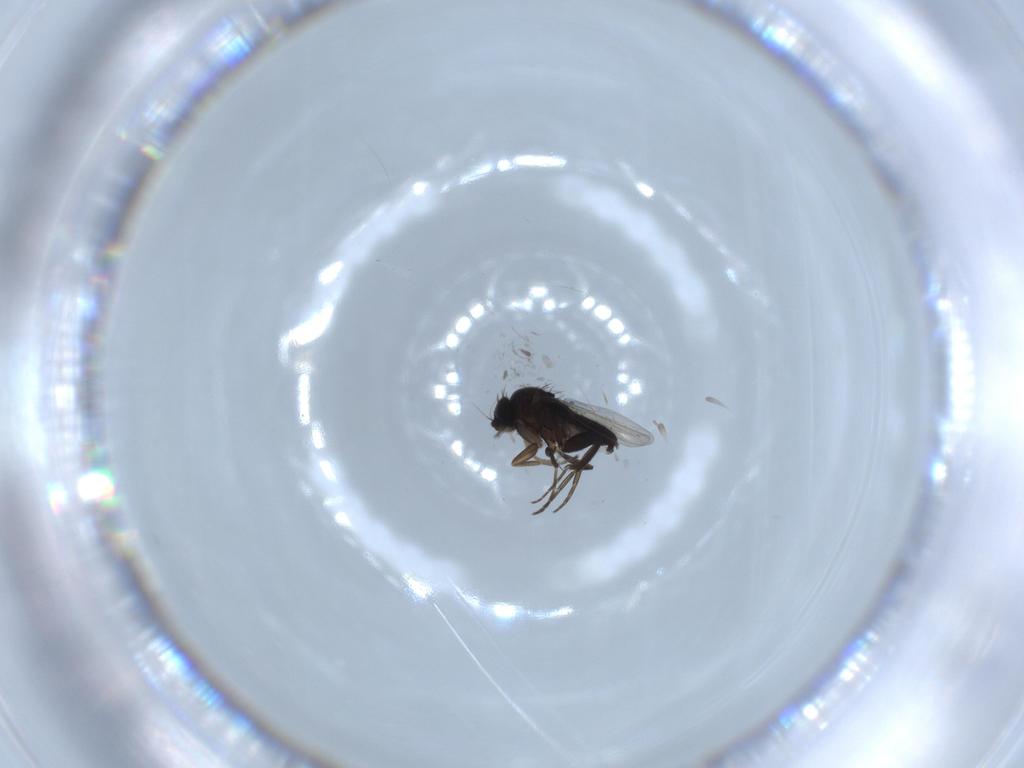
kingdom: Animalia
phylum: Arthropoda
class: Insecta
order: Diptera
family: Phoridae
